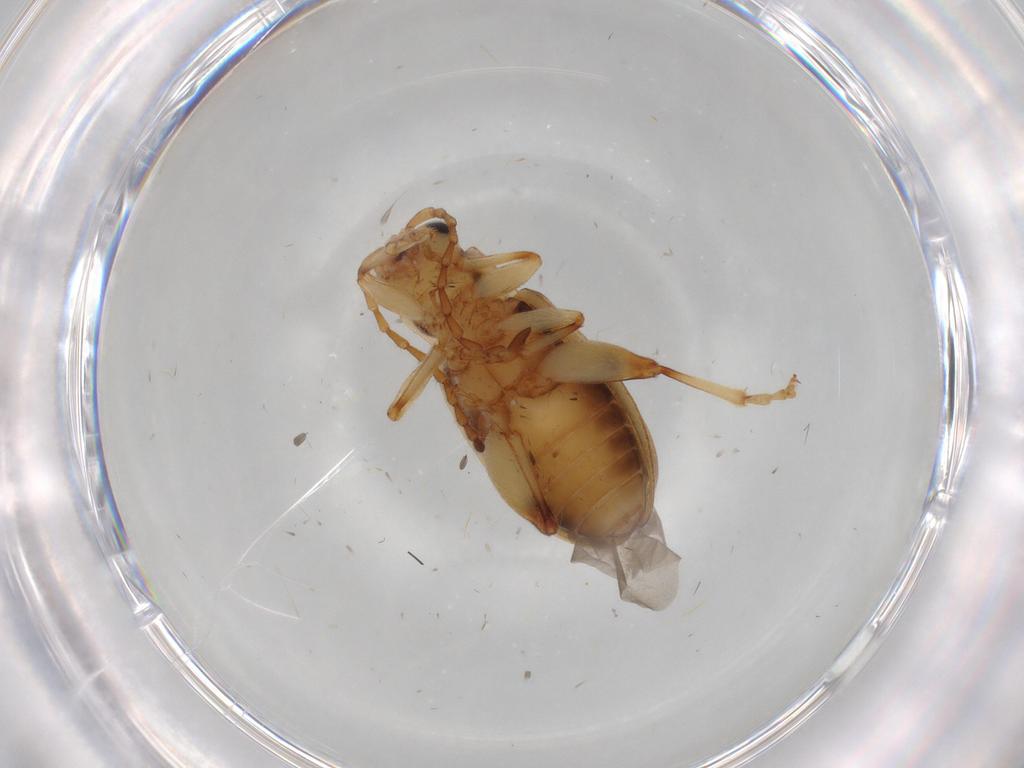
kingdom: Animalia
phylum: Arthropoda
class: Insecta
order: Coleoptera
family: Chrysomelidae
